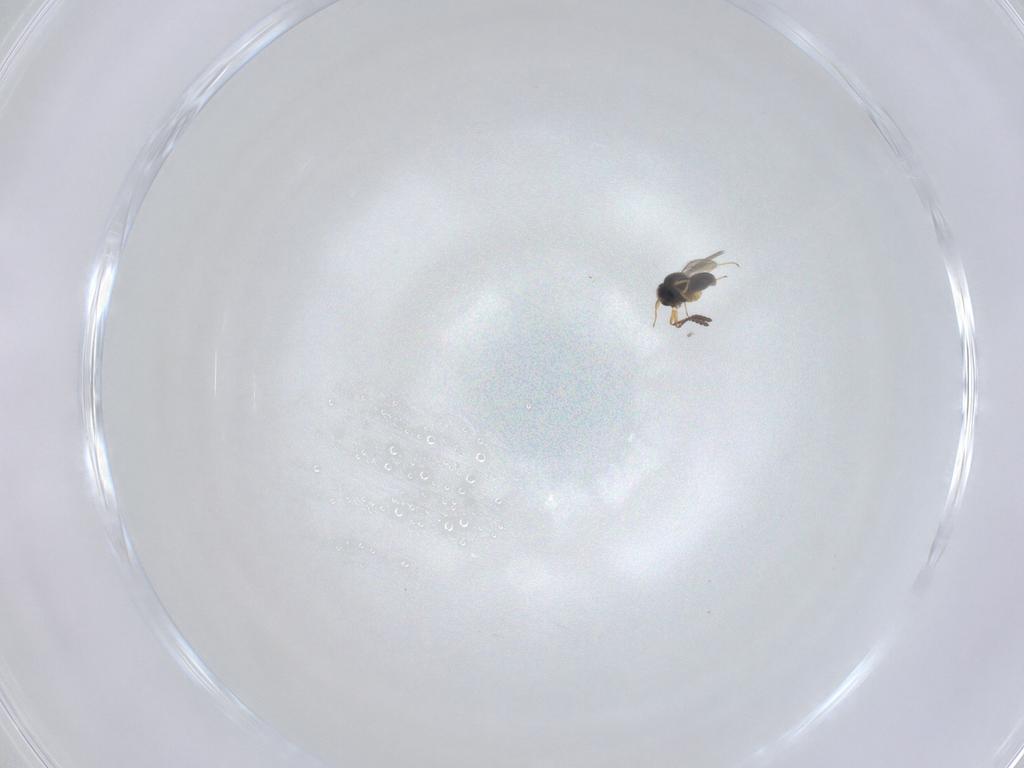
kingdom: Animalia
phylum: Arthropoda
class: Insecta
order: Hymenoptera
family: Scelionidae
